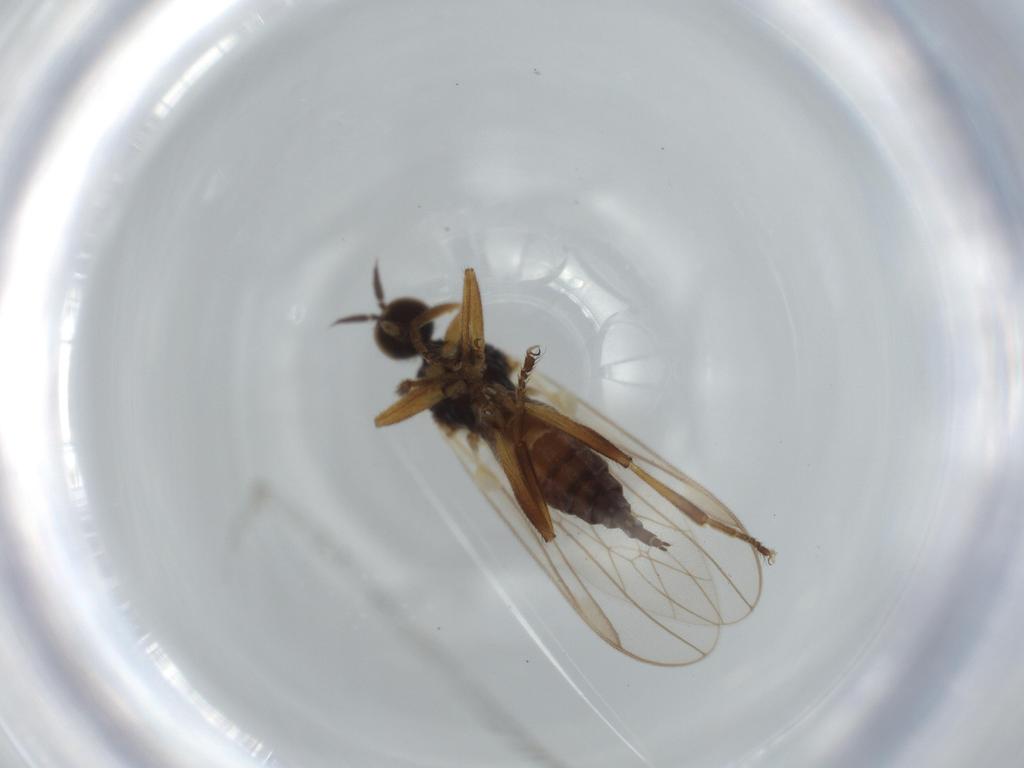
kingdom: Animalia
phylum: Arthropoda
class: Insecta
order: Diptera
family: Hybotidae
